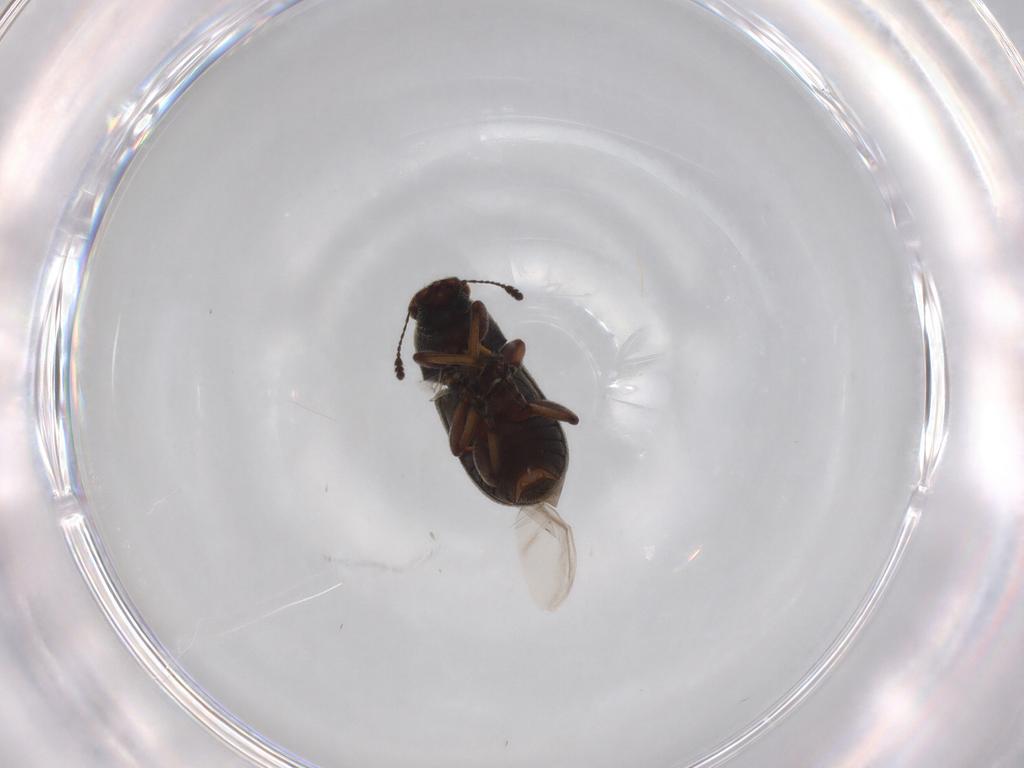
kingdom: Animalia
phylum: Arthropoda
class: Insecta
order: Coleoptera
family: Anthribidae
